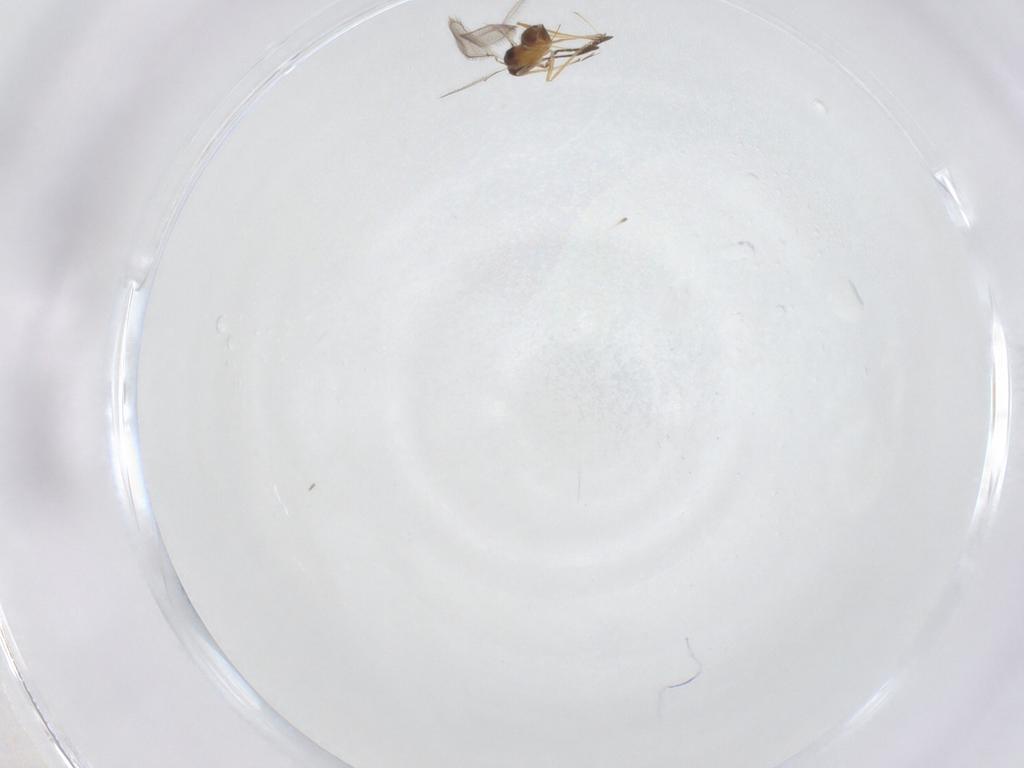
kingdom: Animalia
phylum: Arthropoda
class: Insecta
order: Hymenoptera
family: Mymaridae
